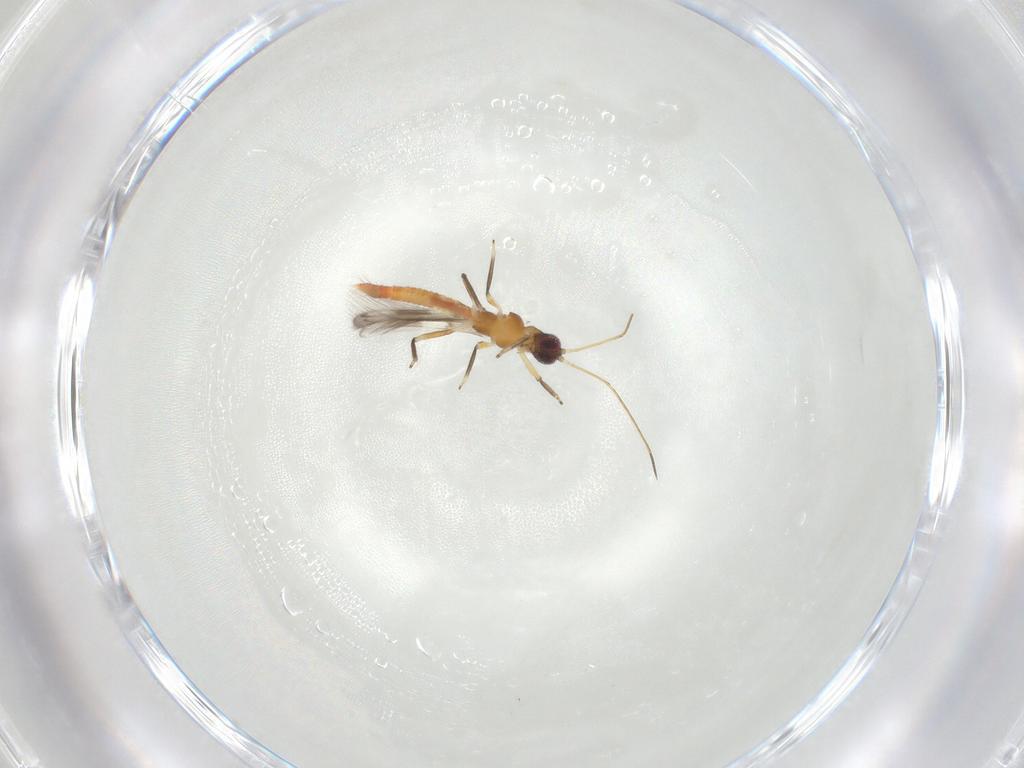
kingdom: Animalia
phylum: Arthropoda
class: Insecta
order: Thysanoptera
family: Aeolothripidae
